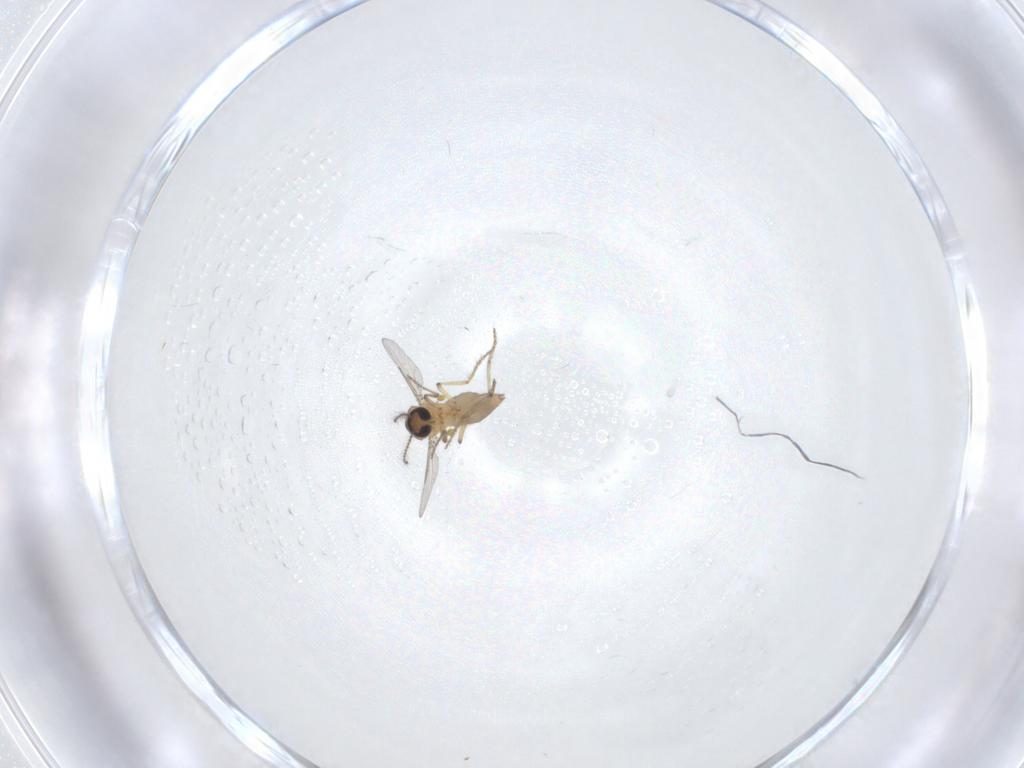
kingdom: Animalia
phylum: Arthropoda
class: Insecta
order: Diptera
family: Ceratopogonidae
